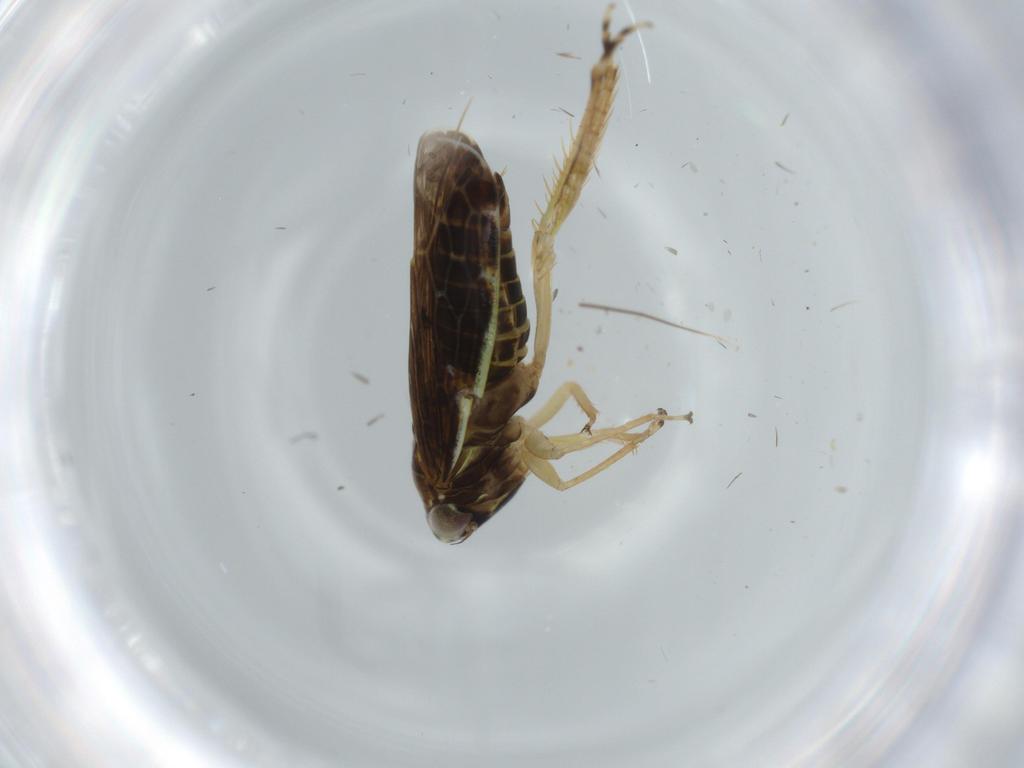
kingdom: Animalia
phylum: Arthropoda
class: Insecta
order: Hemiptera
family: Cicadellidae
